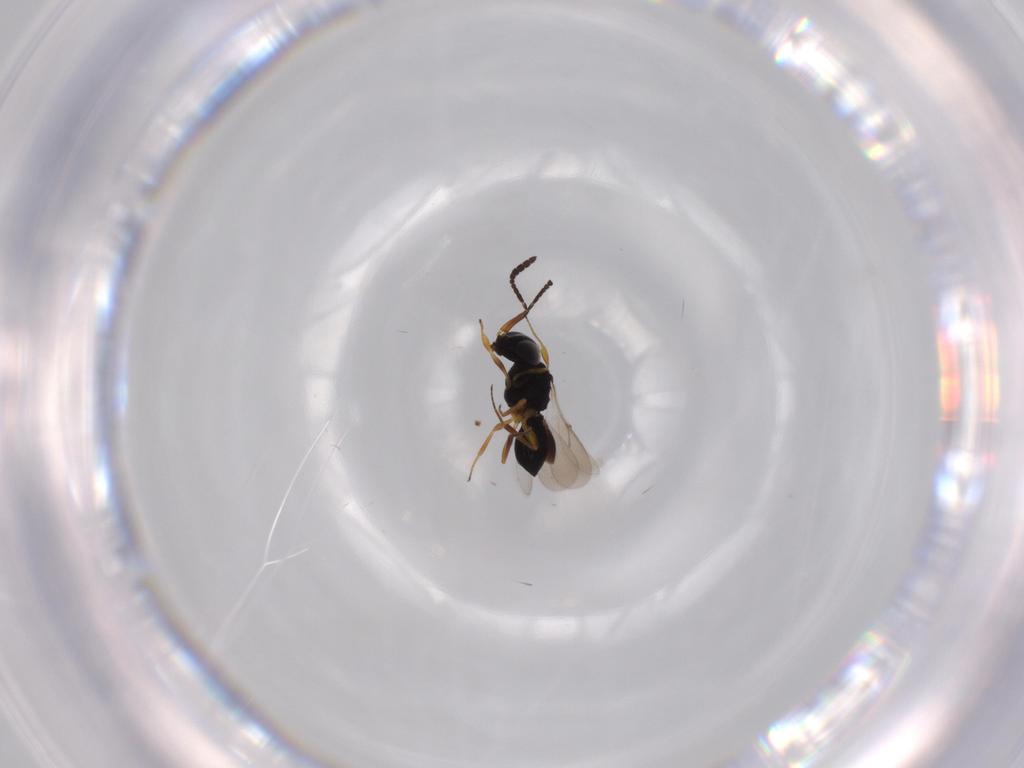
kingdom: Animalia
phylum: Arthropoda
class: Insecta
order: Hymenoptera
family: Scelionidae
